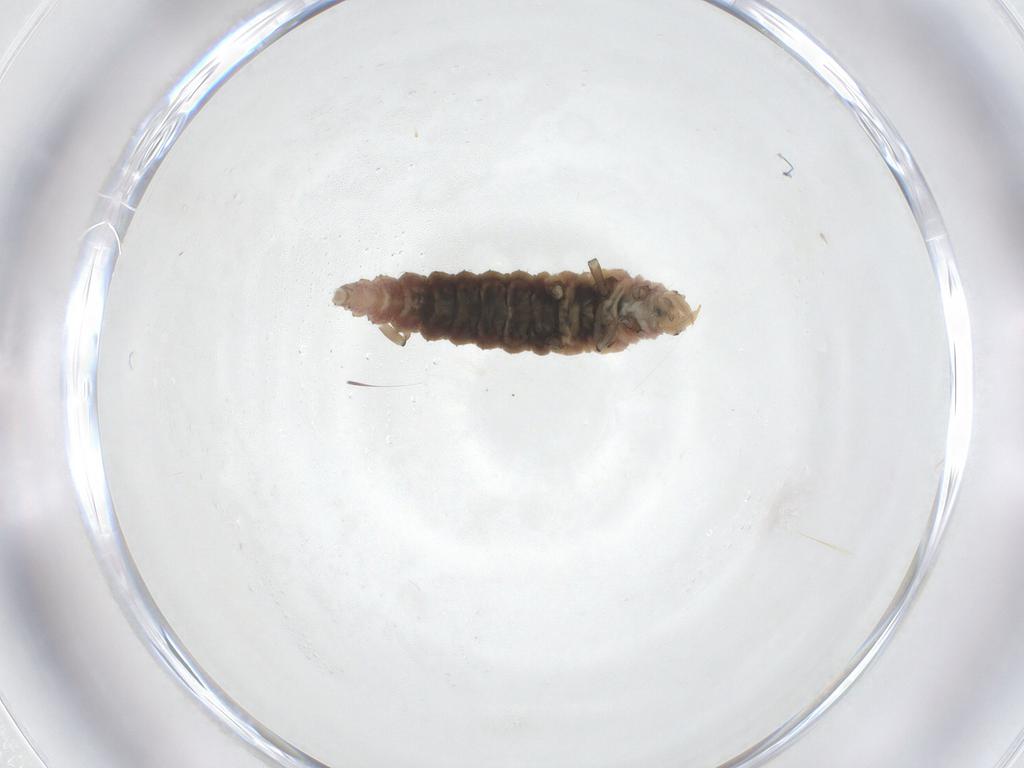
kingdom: Animalia
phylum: Arthropoda
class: Insecta
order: Neuroptera
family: Hemerobiidae
